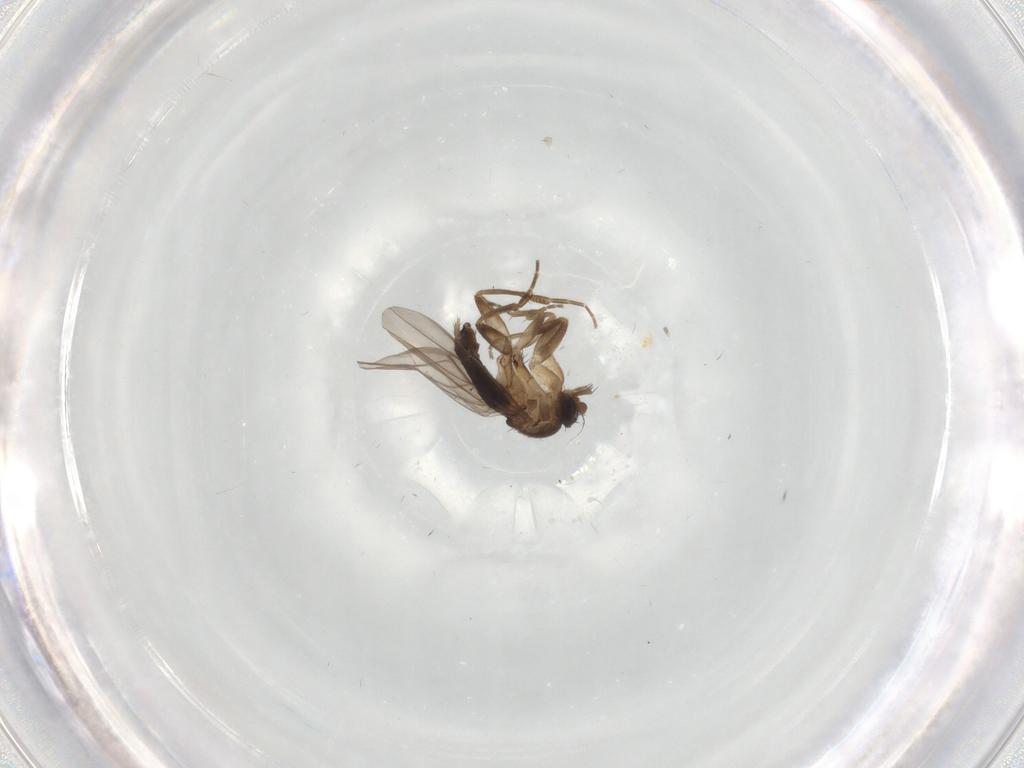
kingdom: Animalia
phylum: Arthropoda
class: Insecta
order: Diptera
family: Ceratopogonidae
